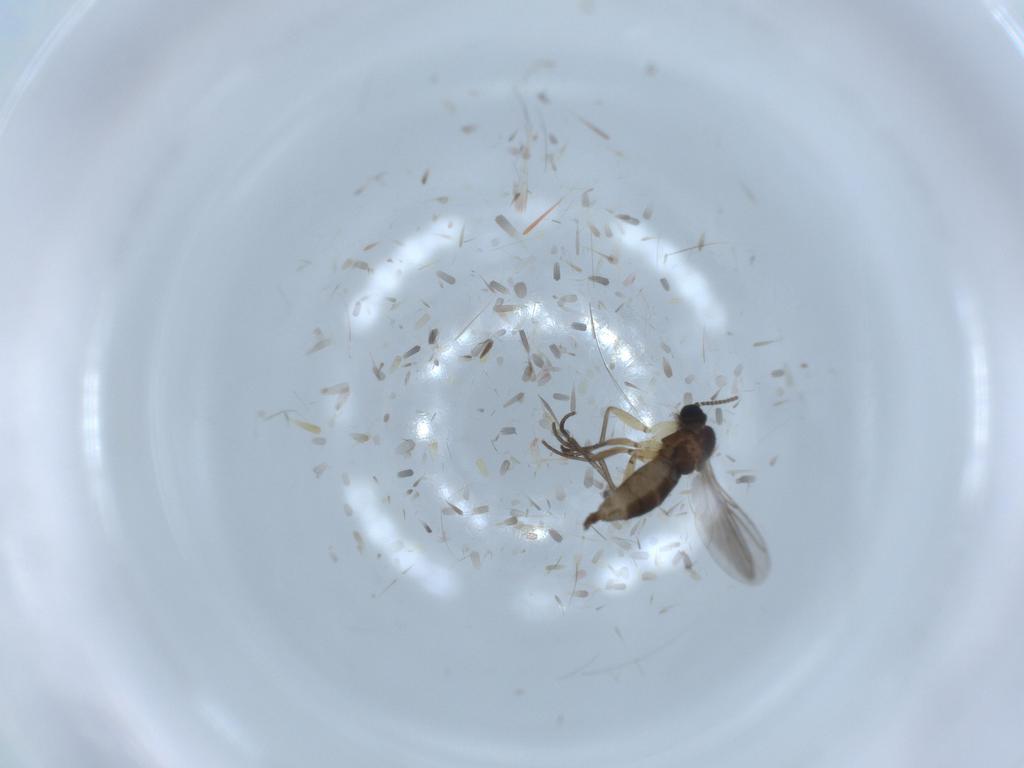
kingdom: Animalia
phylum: Arthropoda
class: Insecta
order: Diptera
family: Sciaridae
